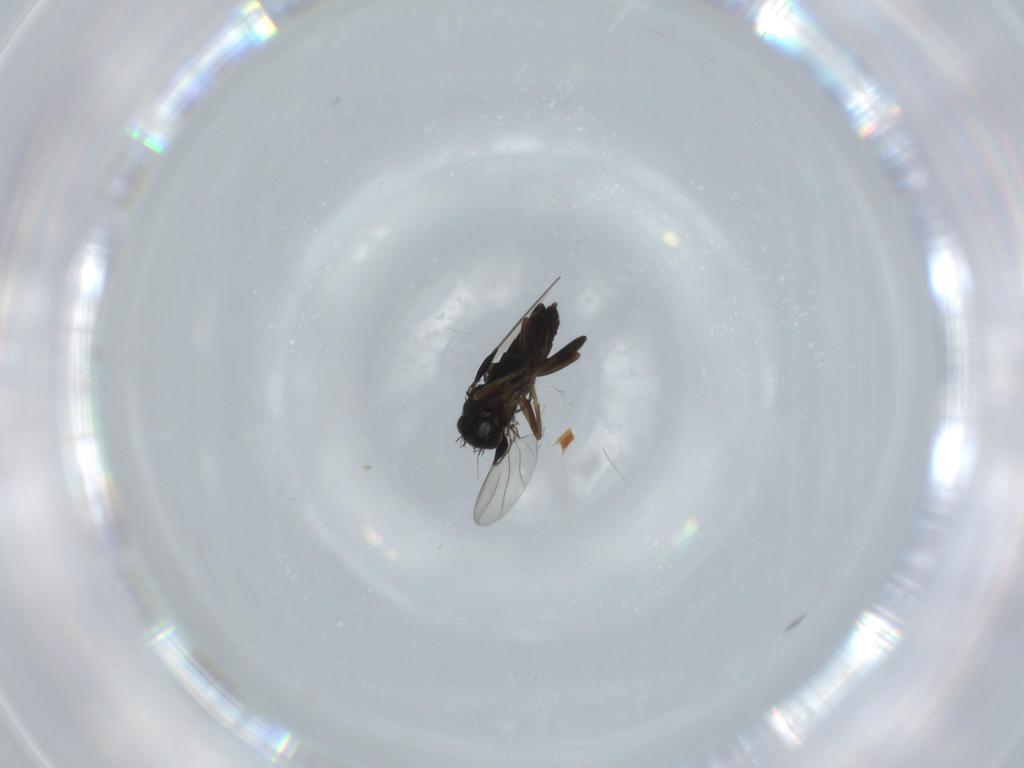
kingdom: Animalia
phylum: Arthropoda
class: Insecta
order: Diptera
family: Phoridae
